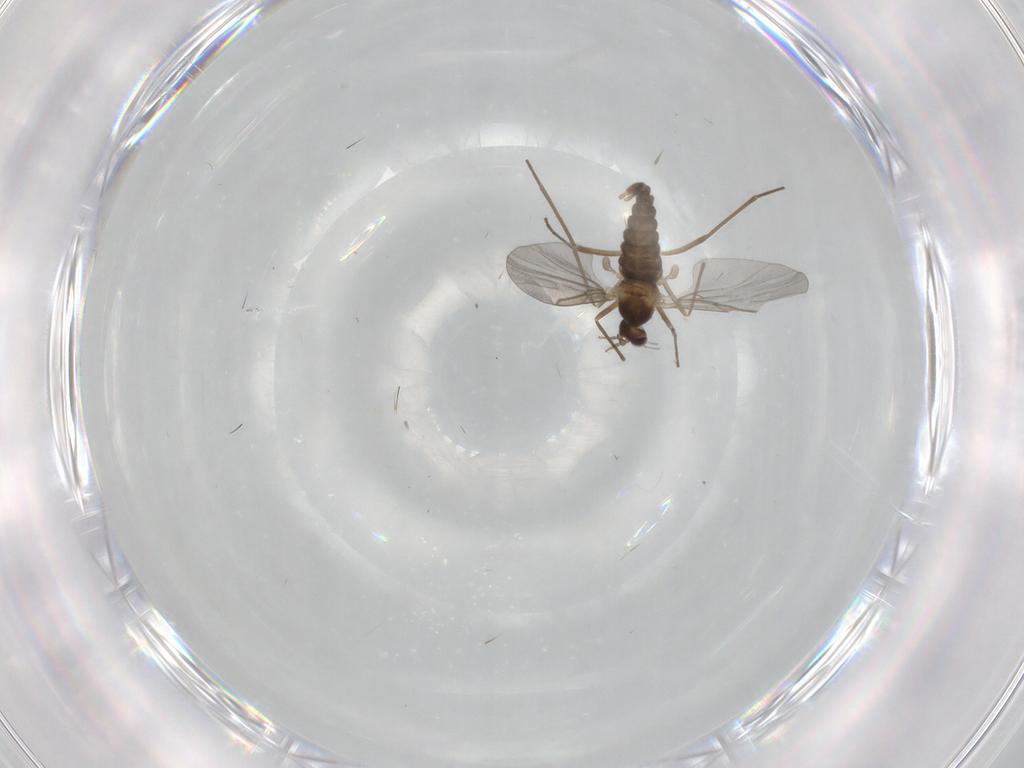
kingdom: Animalia
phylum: Arthropoda
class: Insecta
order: Diptera
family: Cecidomyiidae
